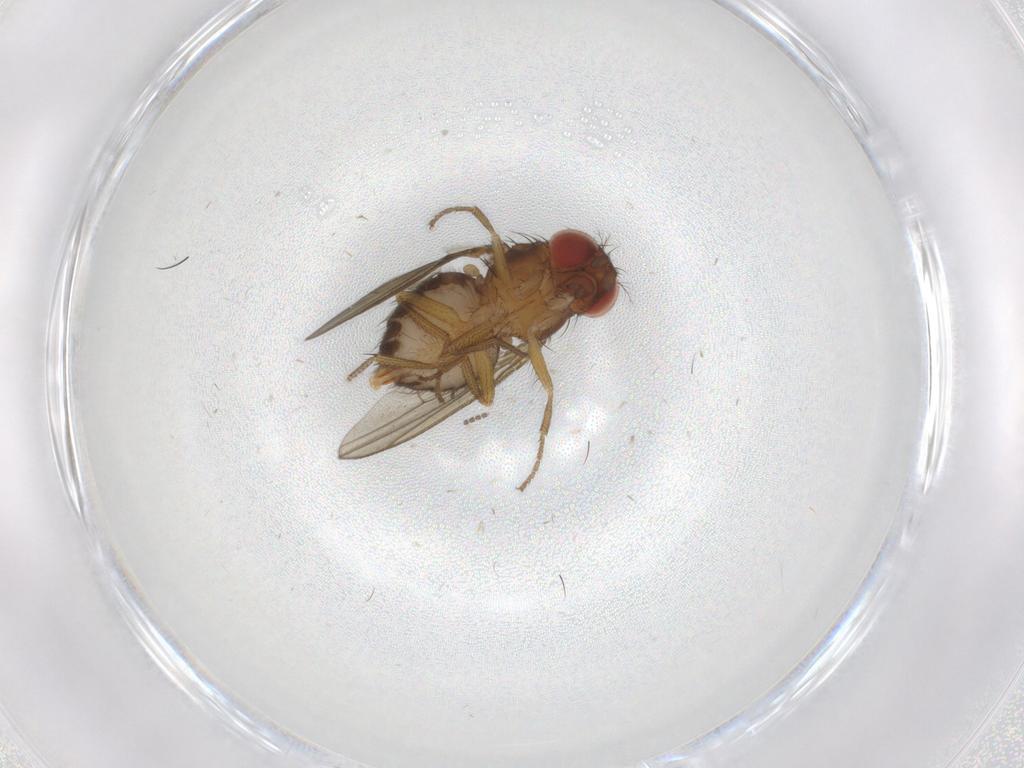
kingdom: Animalia
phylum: Arthropoda
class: Insecta
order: Diptera
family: Drosophilidae
